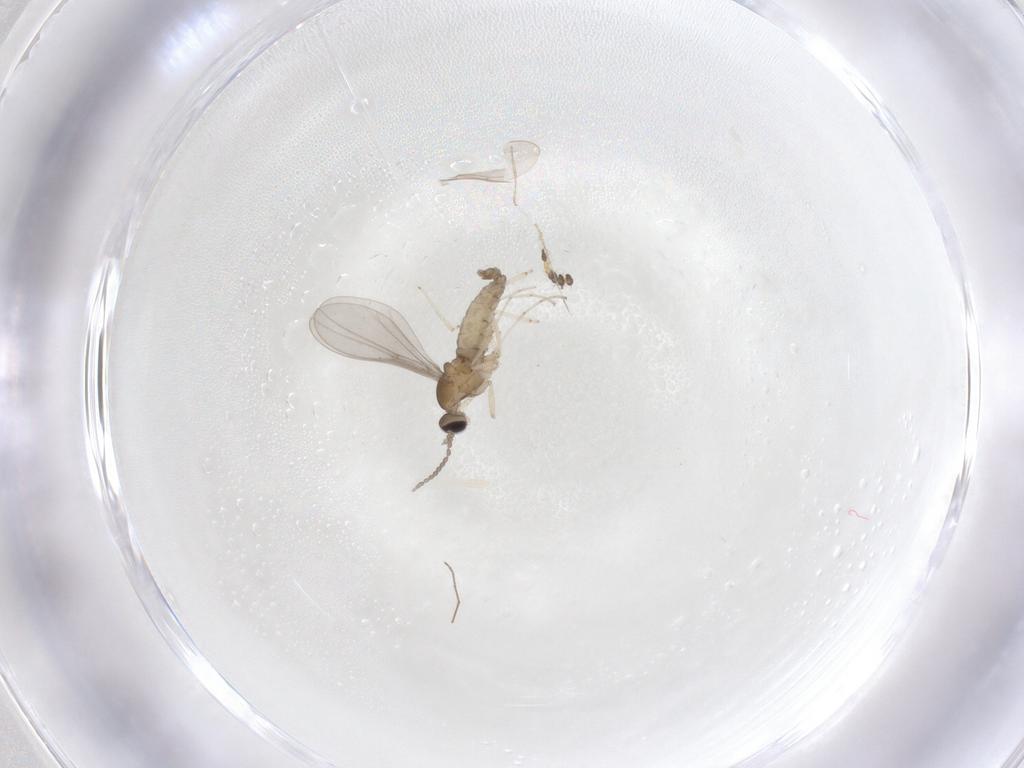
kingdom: Animalia
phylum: Arthropoda
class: Insecta
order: Diptera
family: Cecidomyiidae
